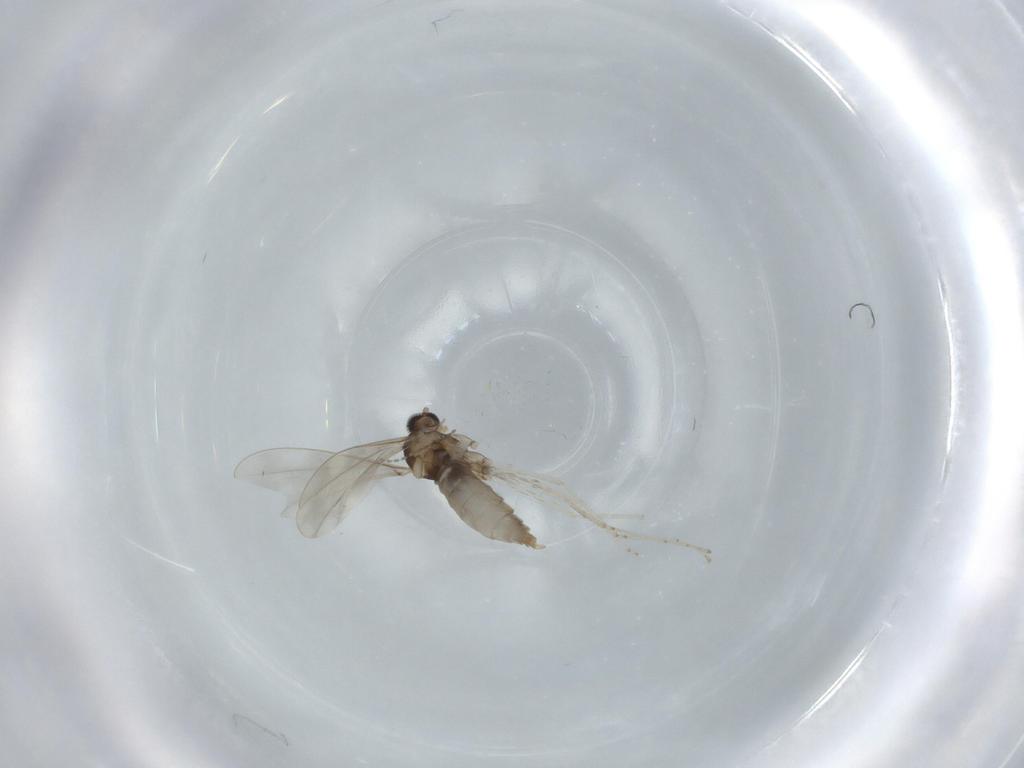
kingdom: Animalia
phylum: Arthropoda
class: Insecta
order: Diptera
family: Cecidomyiidae
